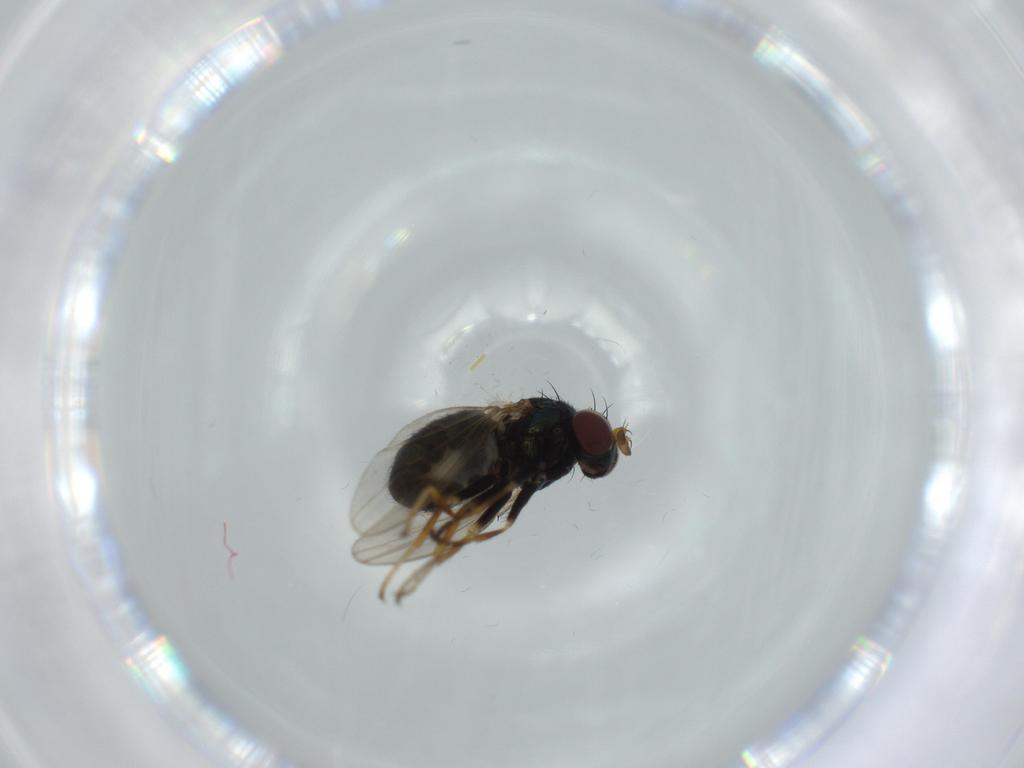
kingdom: Animalia
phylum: Arthropoda
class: Insecta
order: Diptera
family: Ephydridae
